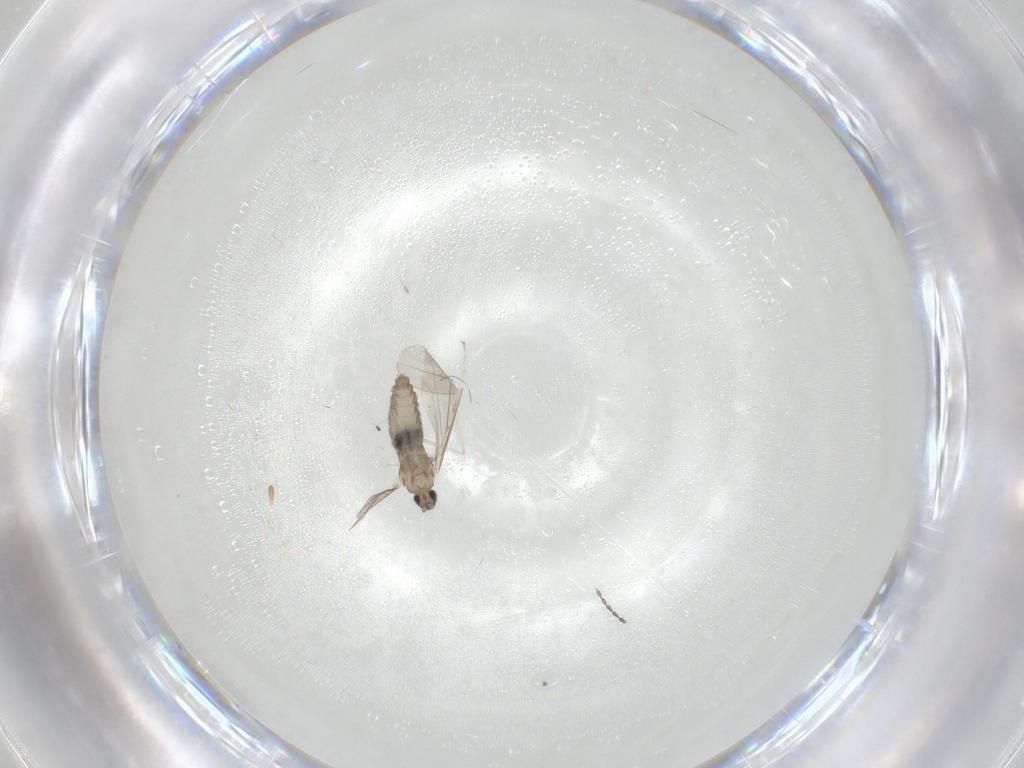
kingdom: Animalia
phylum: Arthropoda
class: Insecta
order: Diptera
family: Cecidomyiidae
